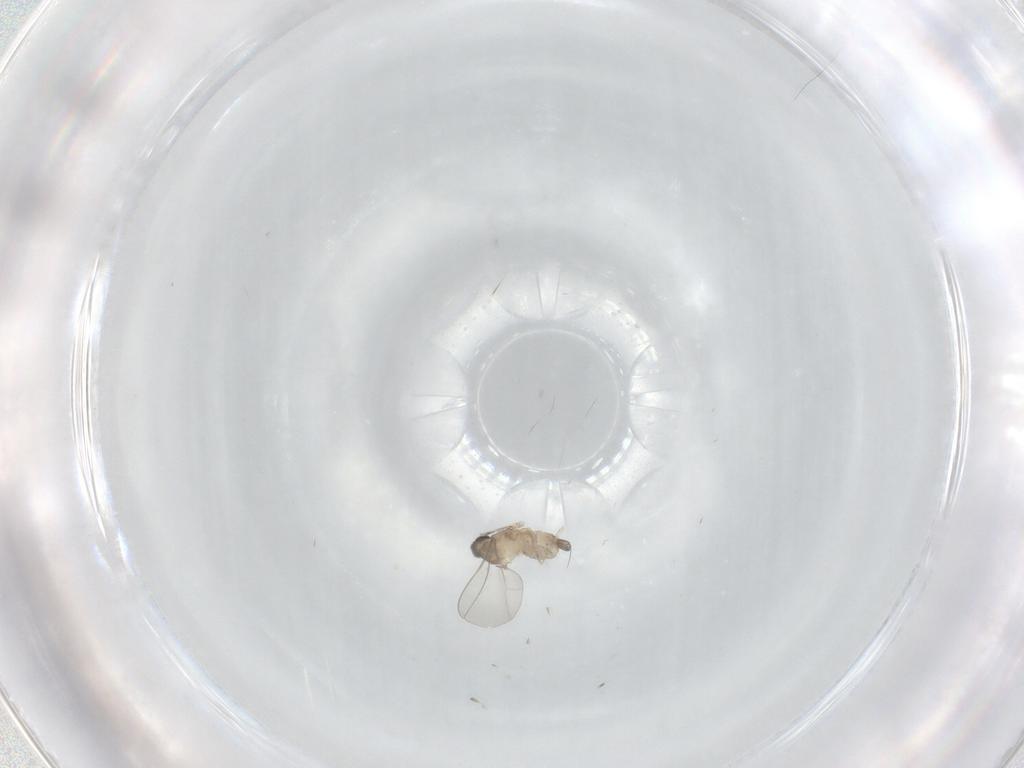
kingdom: Animalia
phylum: Arthropoda
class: Insecta
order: Diptera
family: Cecidomyiidae
